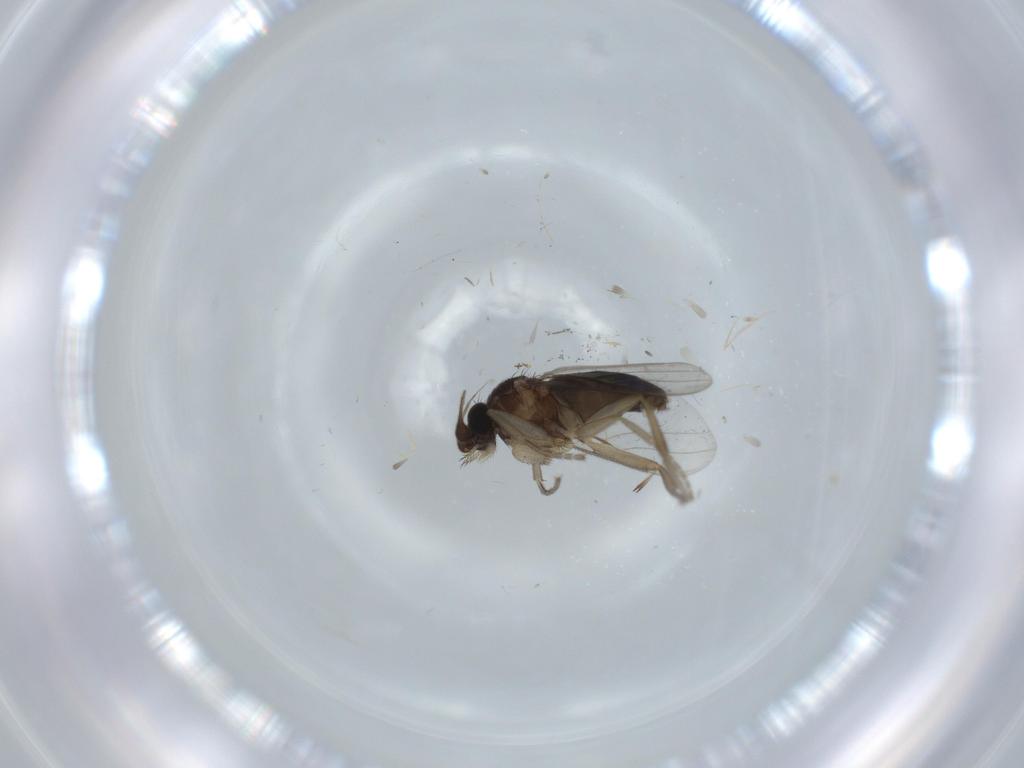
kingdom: Animalia
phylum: Arthropoda
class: Insecta
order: Diptera
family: Phoridae
